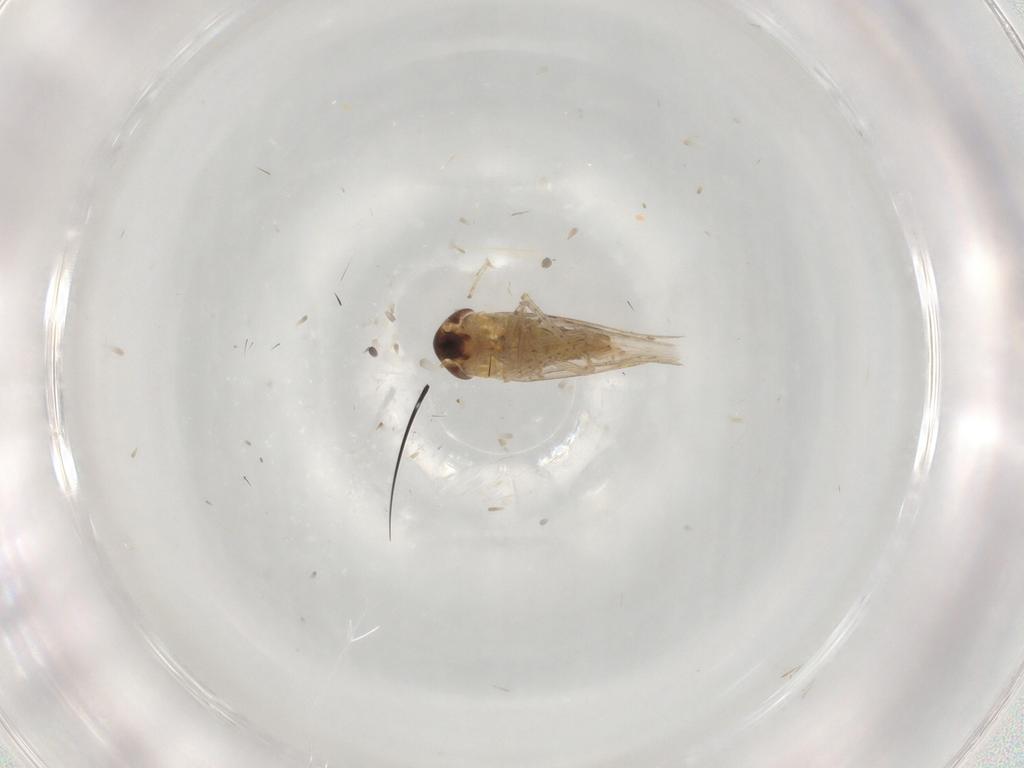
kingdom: Animalia
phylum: Arthropoda
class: Insecta
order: Hemiptera
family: Cicadellidae
